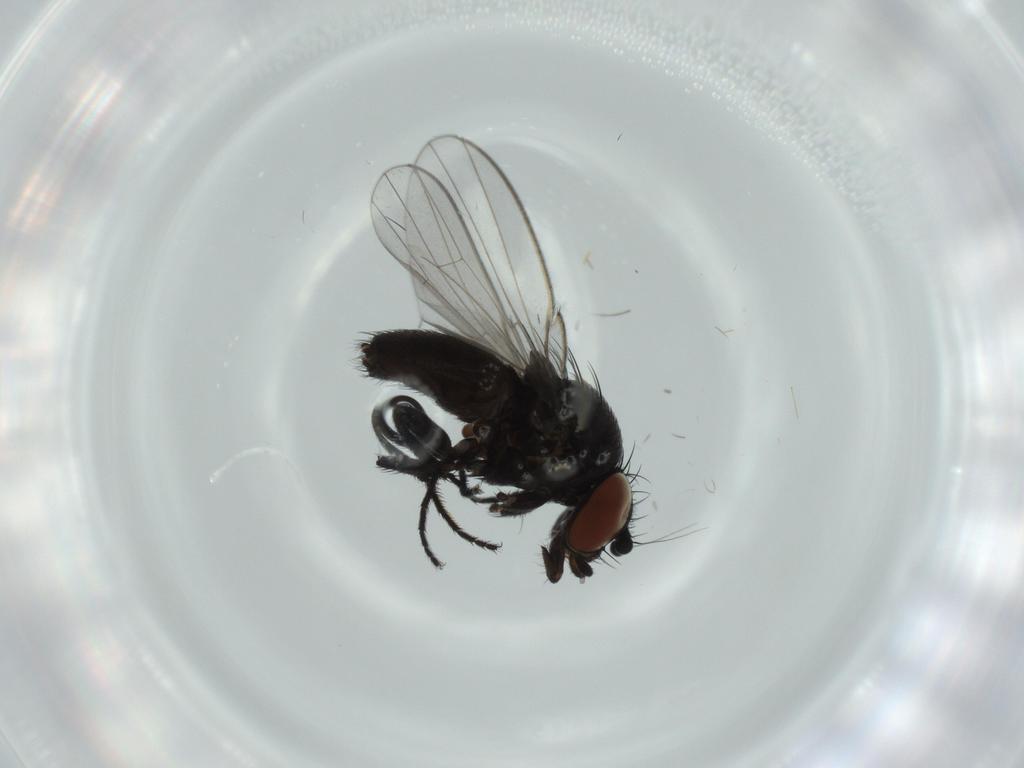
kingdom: Animalia
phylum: Arthropoda
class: Insecta
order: Diptera
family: Milichiidae
